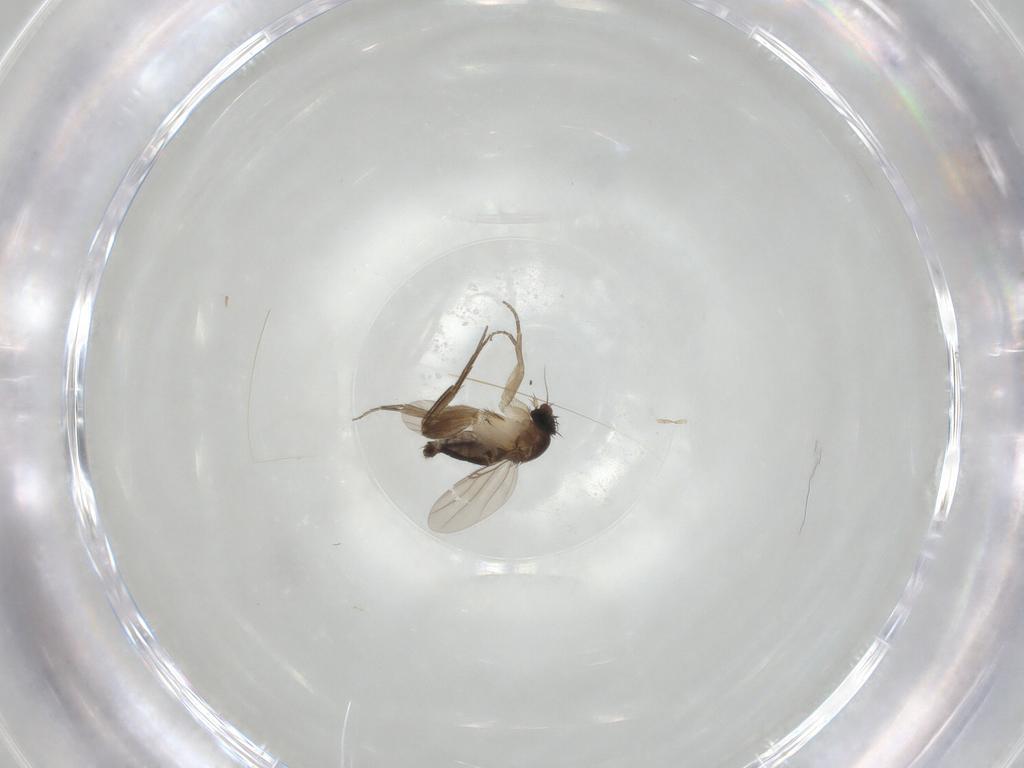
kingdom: Animalia
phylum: Arthropoda
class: Insecta
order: Diptera
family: Phoridae
